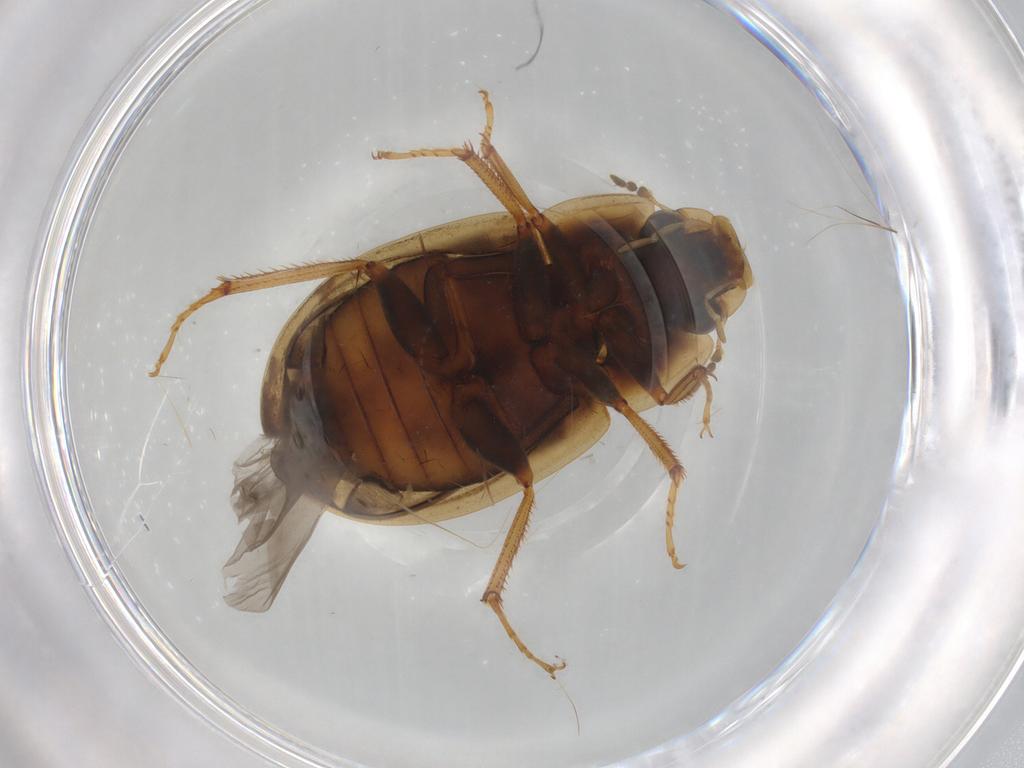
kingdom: Animalia
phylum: Arthropoda
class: Insecta
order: Coleoptera
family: Hydrophilidae
